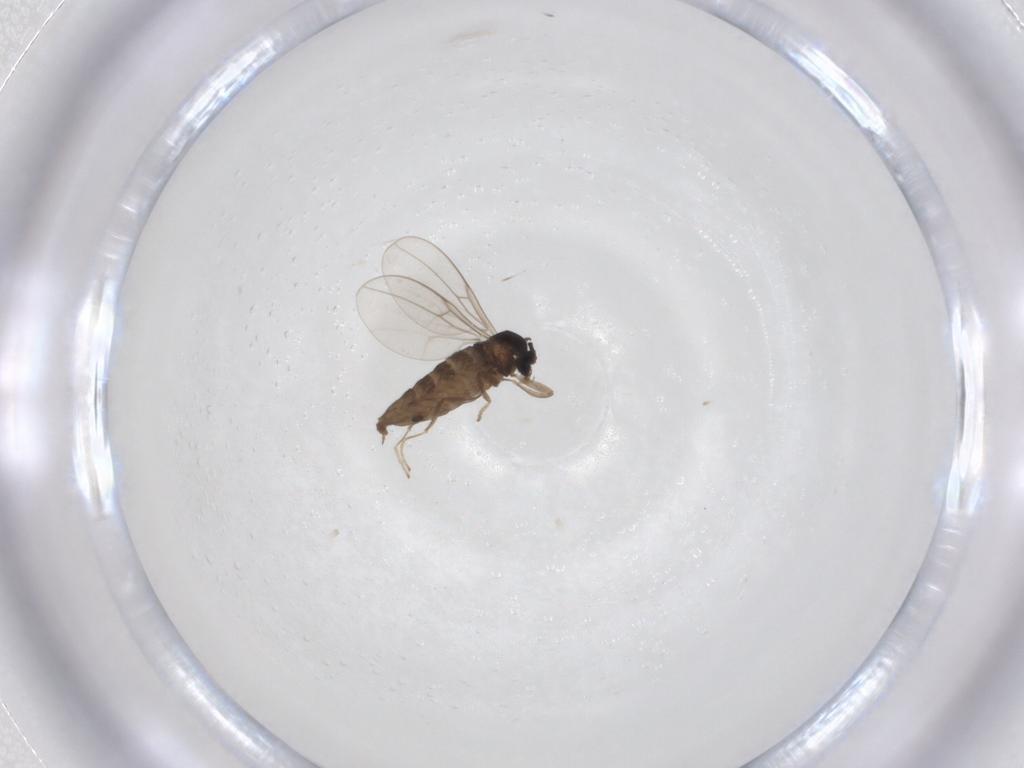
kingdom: Animalia
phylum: Arthropoda
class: Insecta
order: Diptera
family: Cecidomyiidae
